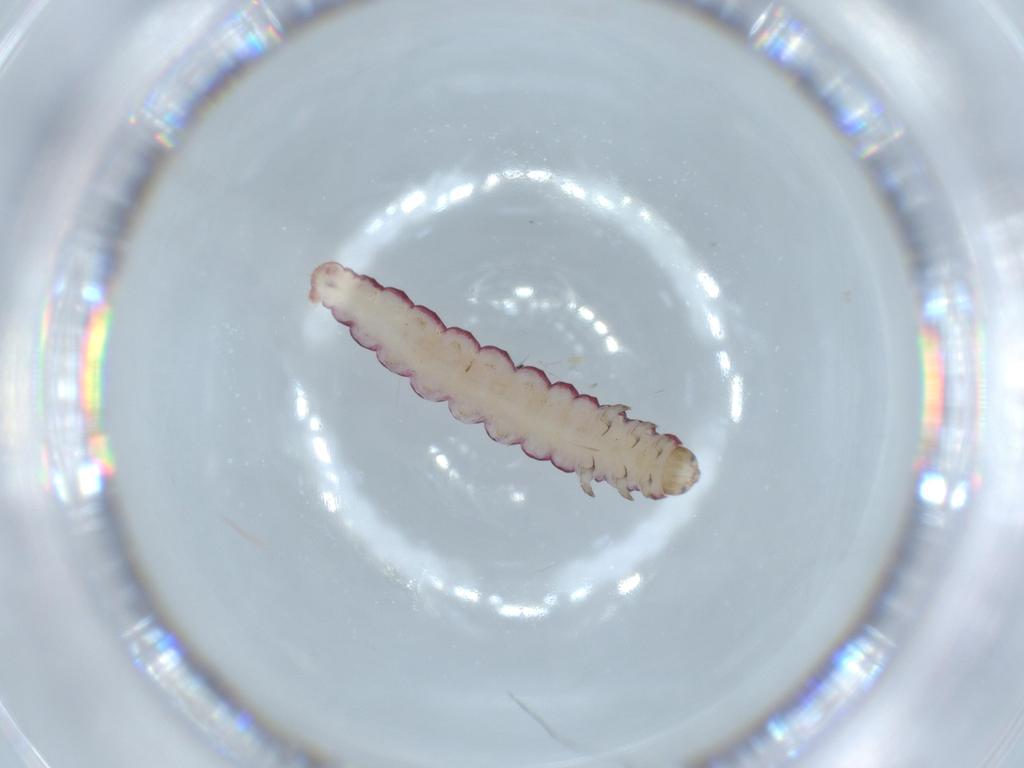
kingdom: Animalia
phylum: Arthropoda
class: Insecta
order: Lepidoptera
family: Gelechiidae
